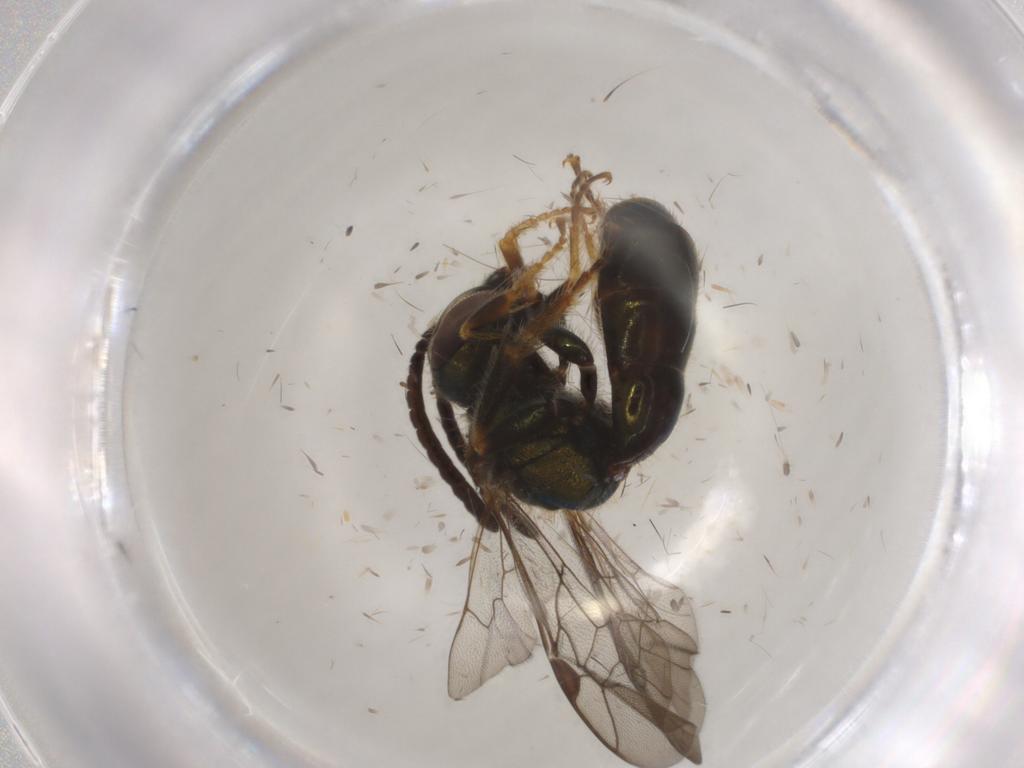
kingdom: Animalia
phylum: Arthropoda
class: Insecta
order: Hymenoptera
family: Halictidae
